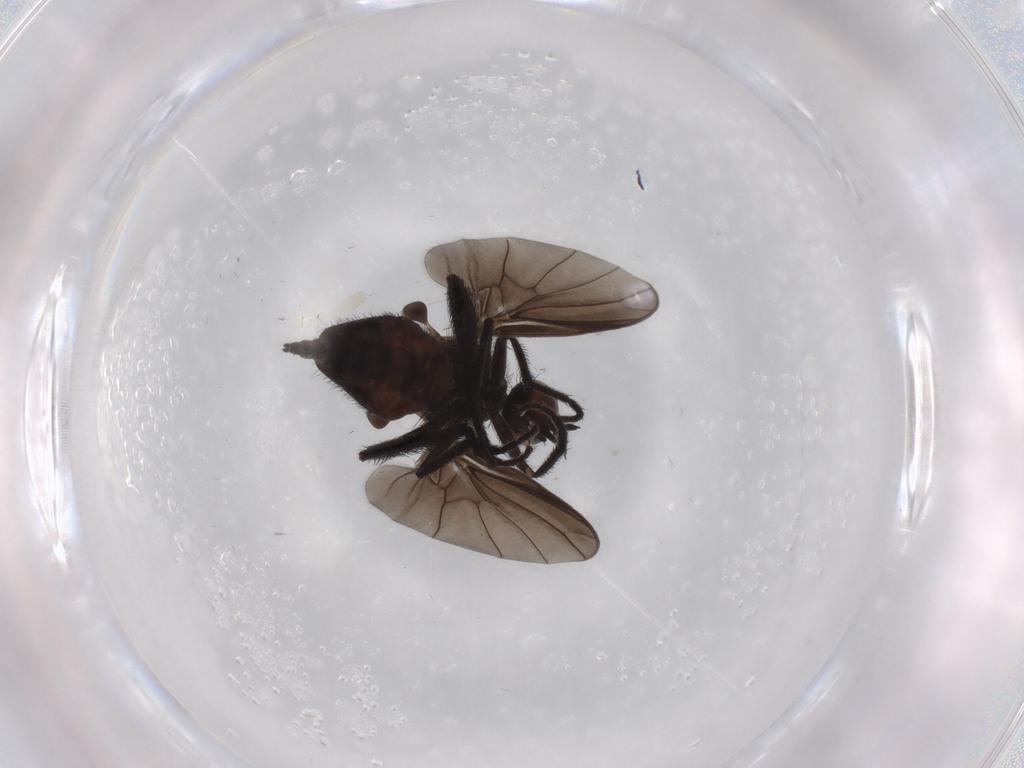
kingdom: Animalia
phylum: Arthropoda
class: Insecta
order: Diptera
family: Empididae
